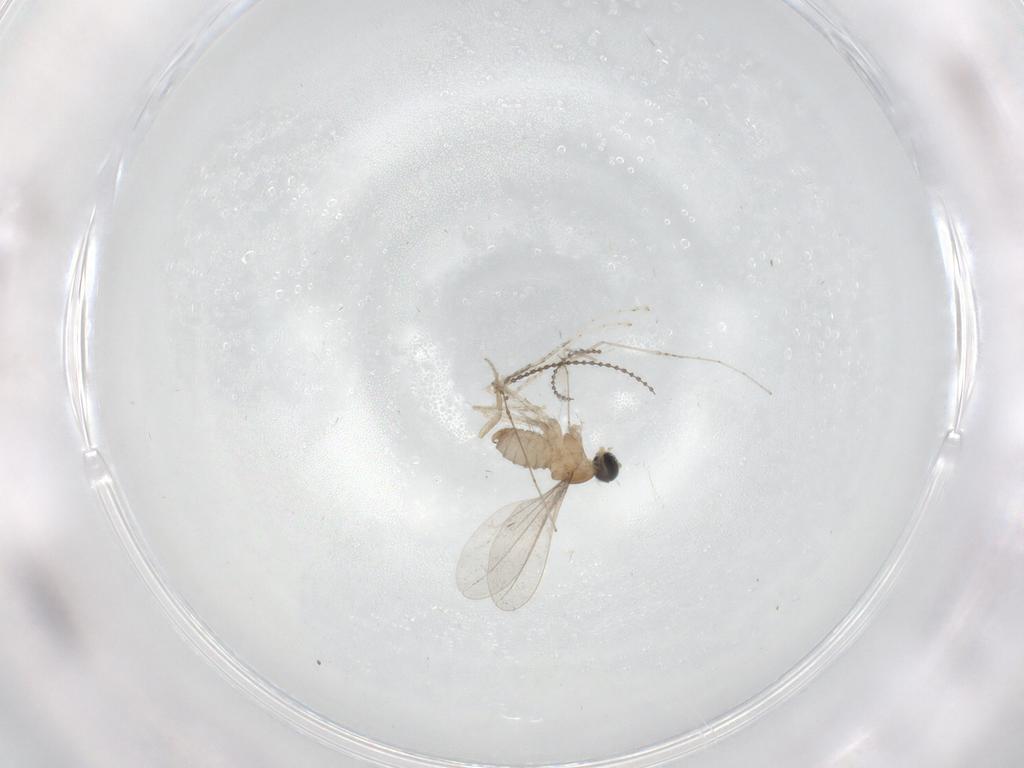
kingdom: Animalia
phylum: Arthropoda
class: Insecta
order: Diptera
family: Cecidomyiidae
